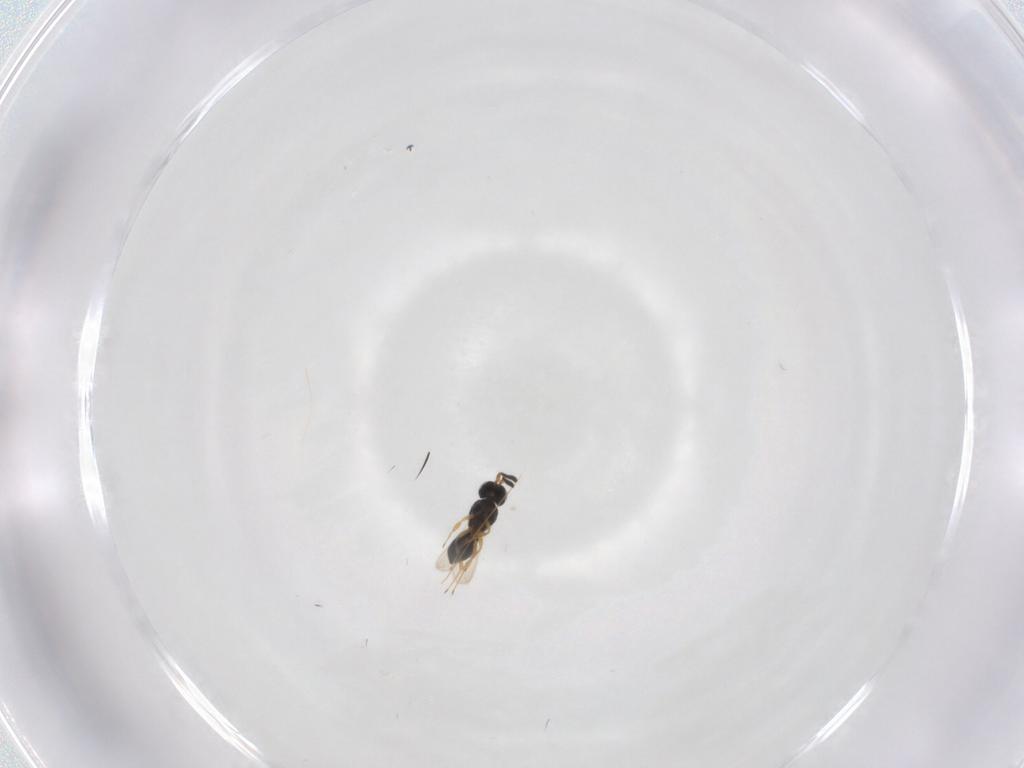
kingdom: Animalia
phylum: Arthropoda
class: Insecta
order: Hymenoptera
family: Scelionidae
